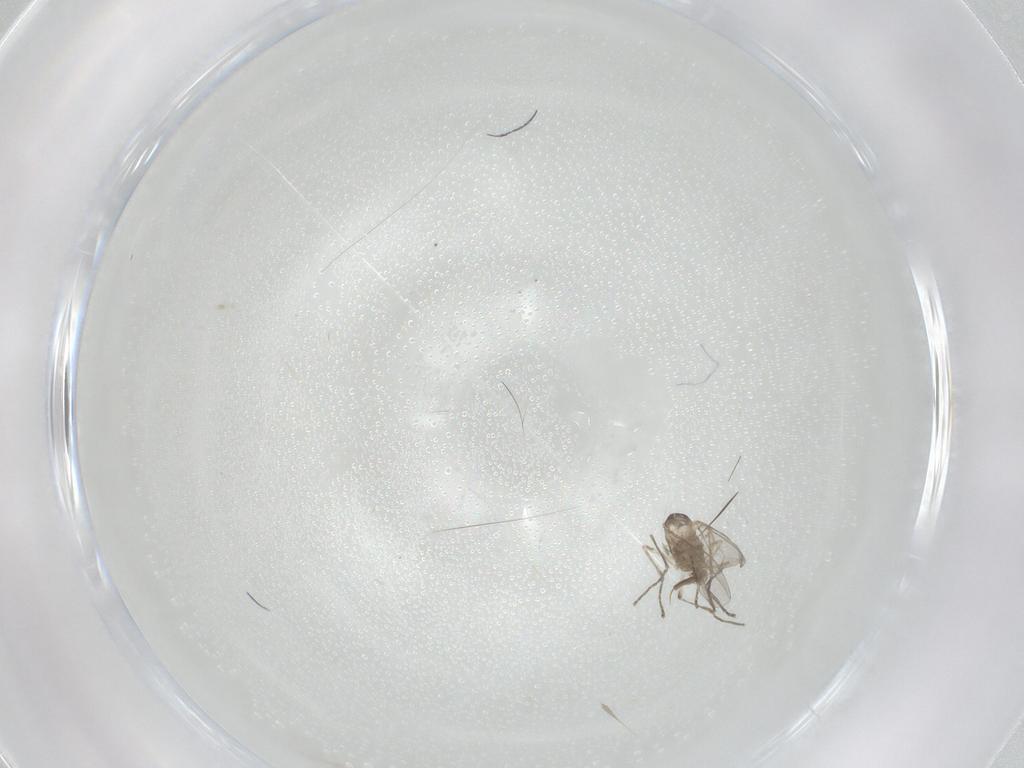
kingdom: Animalia
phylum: Arthropoda
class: Insecta
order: Diptera
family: Cecidomyiidae
